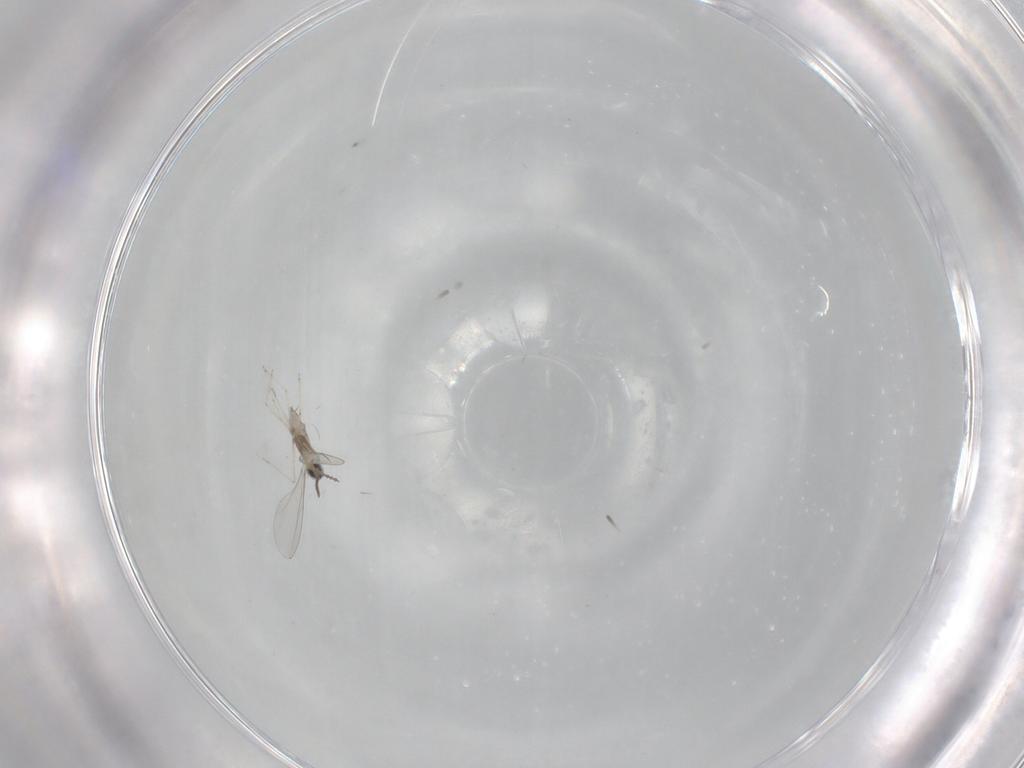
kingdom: Animalia
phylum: Arthropoda
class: Insecta
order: Diptera
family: Cecidomyiidae
